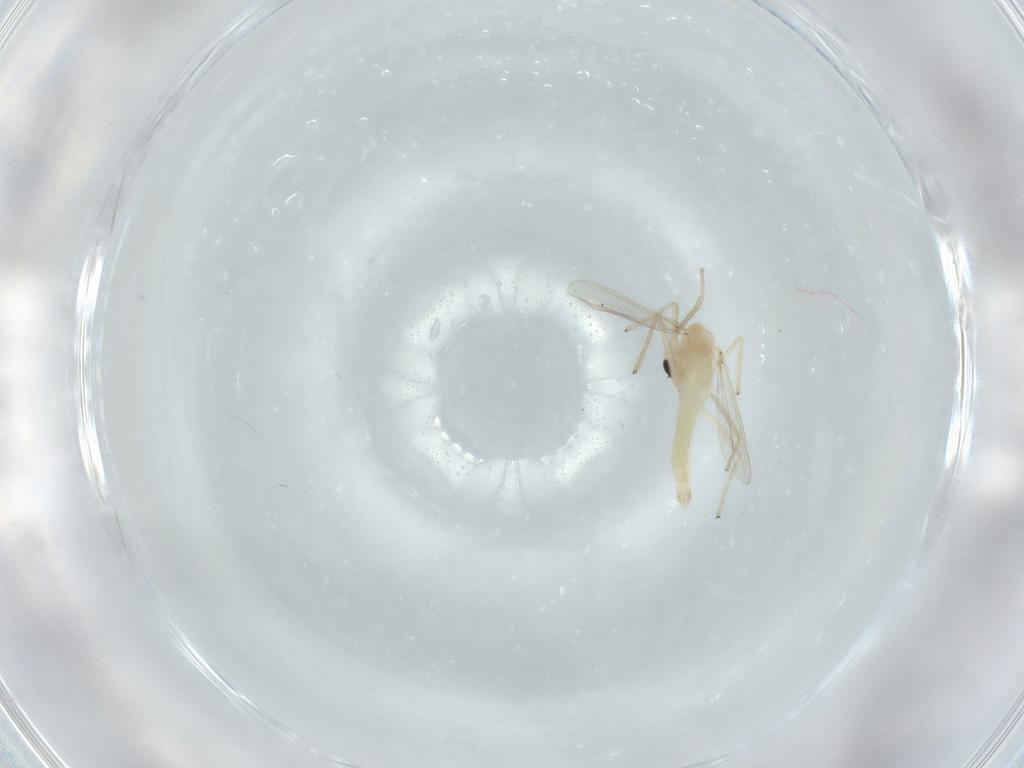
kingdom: Animalia
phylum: Arthropoda
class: Insecta
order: Diptera
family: Chironomidae
